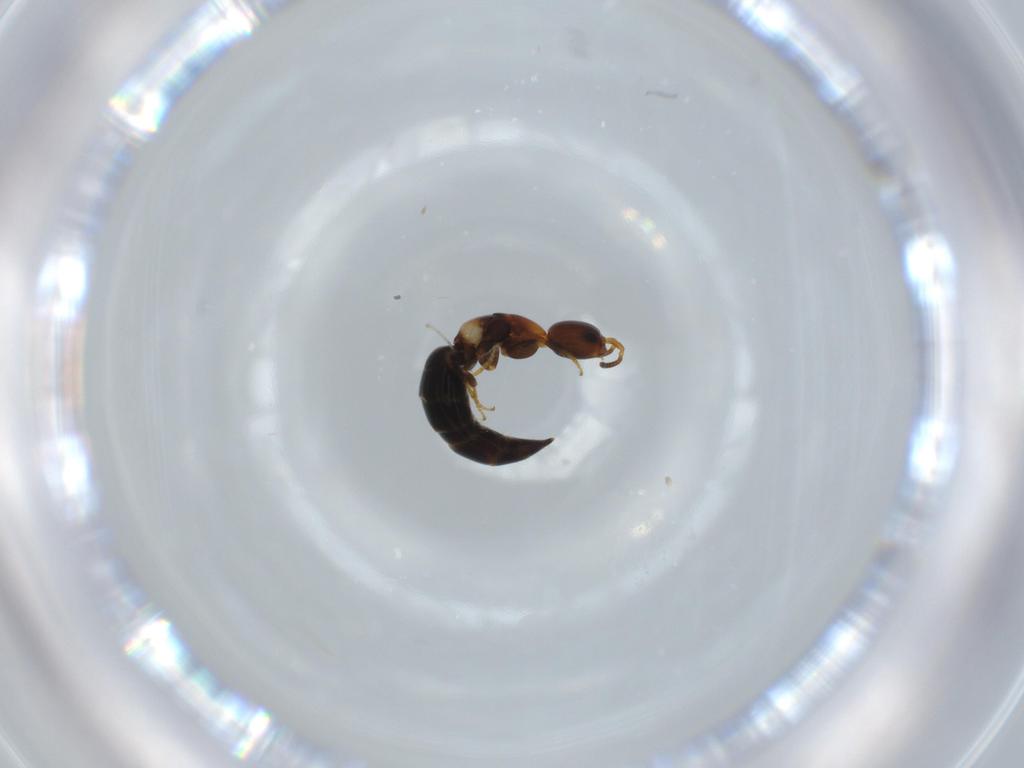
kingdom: Animalia
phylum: Arthropoda
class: Insecta
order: Hymenoptera
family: Bethylidae
